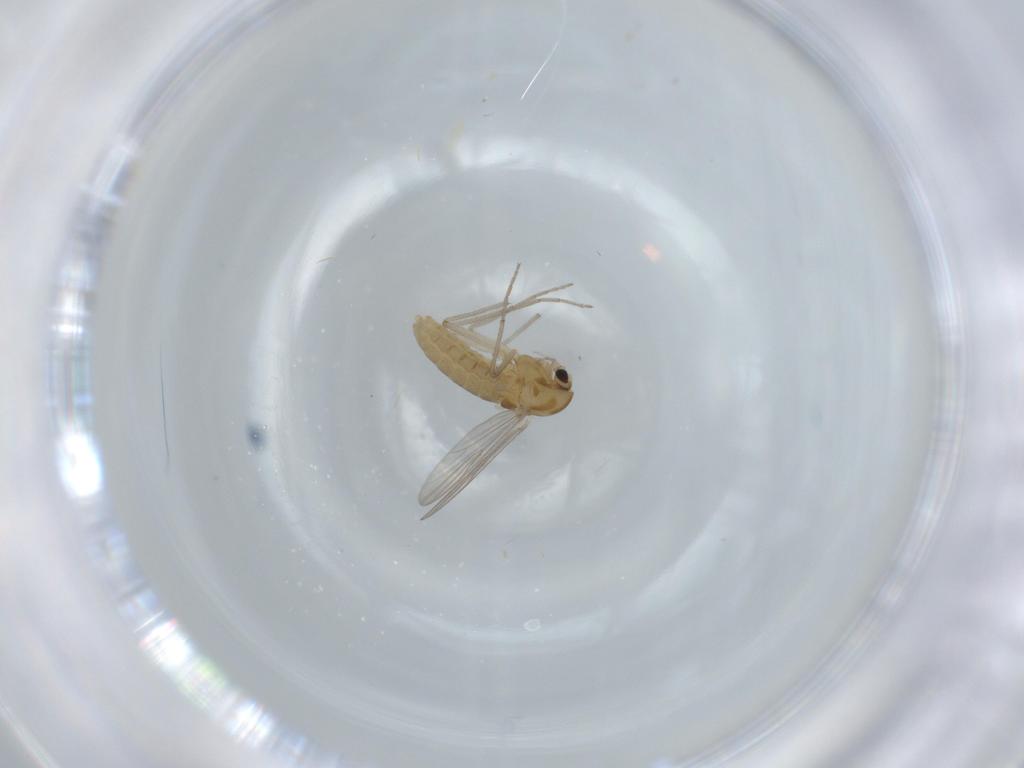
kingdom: Animalia
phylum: Arthropoda
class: Insecta
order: Diptera
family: Chironomidae
